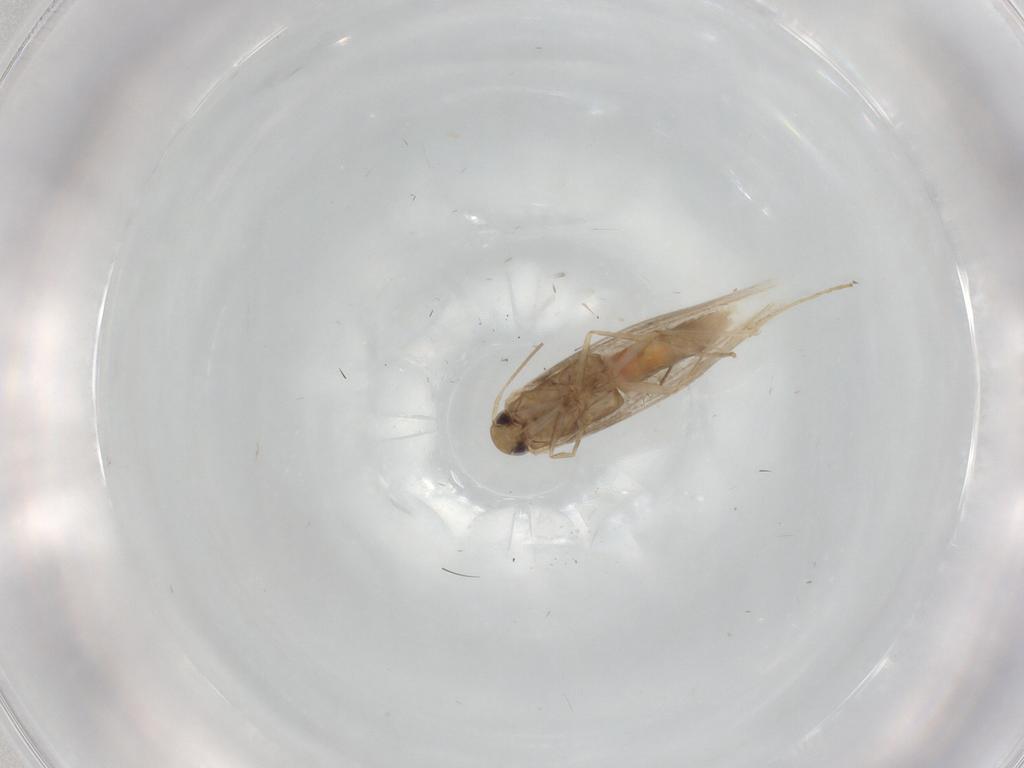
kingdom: Animalia
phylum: Arthropoda
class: Insecta
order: Lepidoptera
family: Gracillariidae
